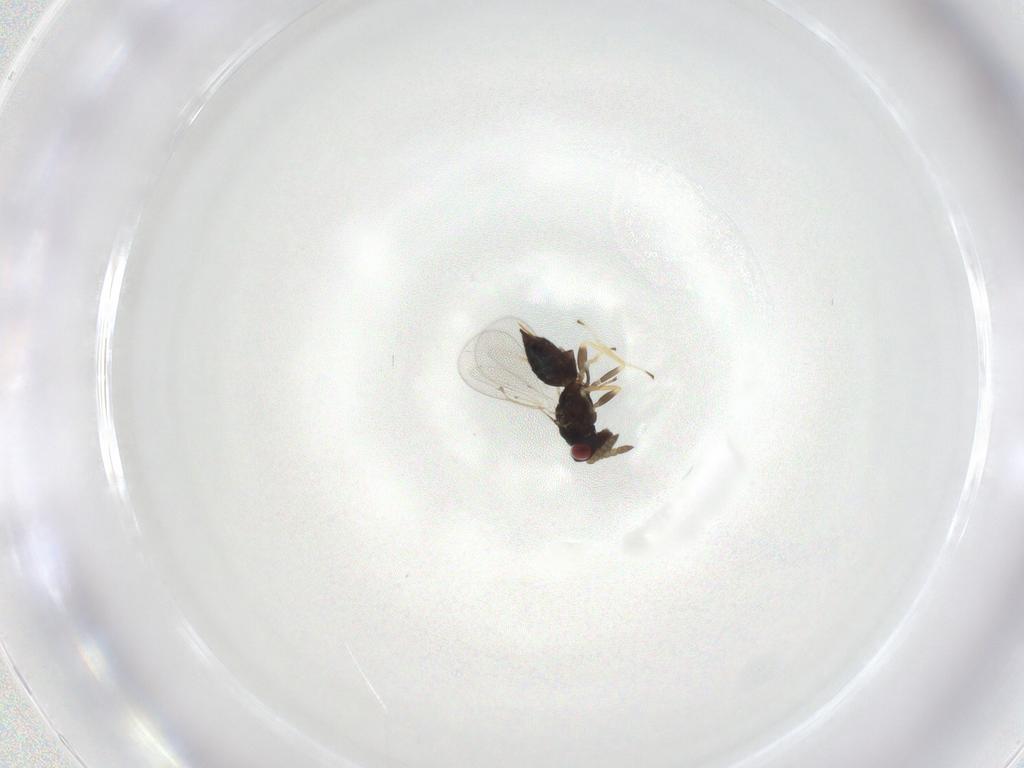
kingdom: Animalia
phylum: Arthropoda
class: Insecta
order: Hymenoptera
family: Eulophidae
